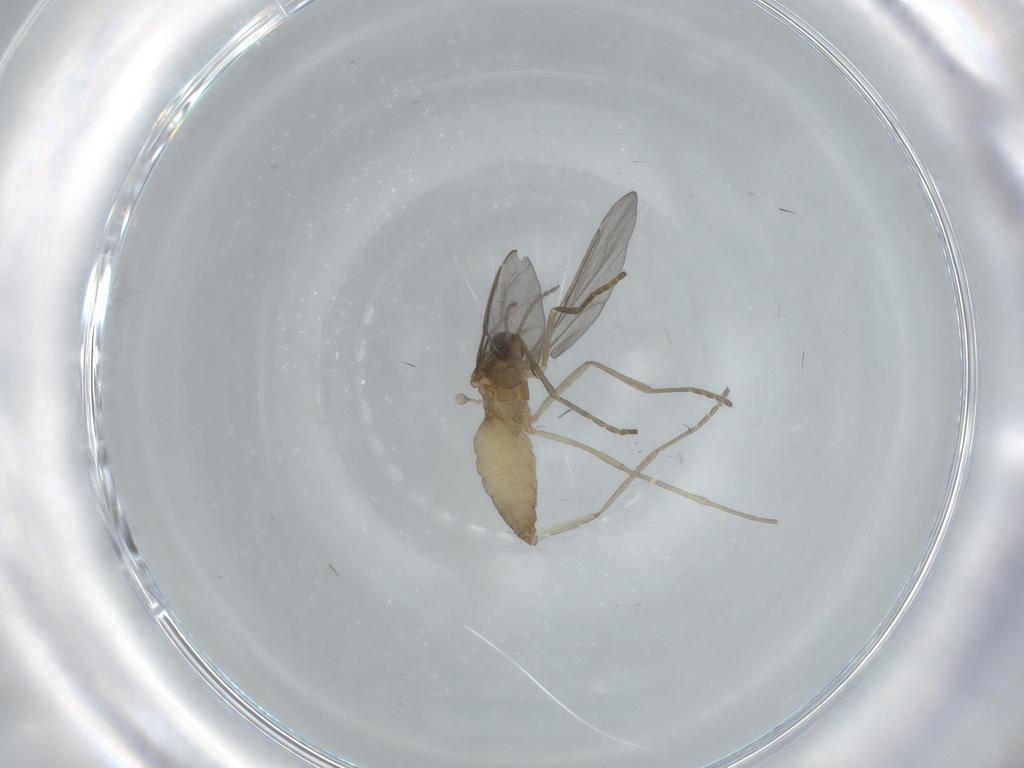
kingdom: Animalia
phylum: Arthropoda
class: Insecta
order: Diptera
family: Cecidomyiidae
